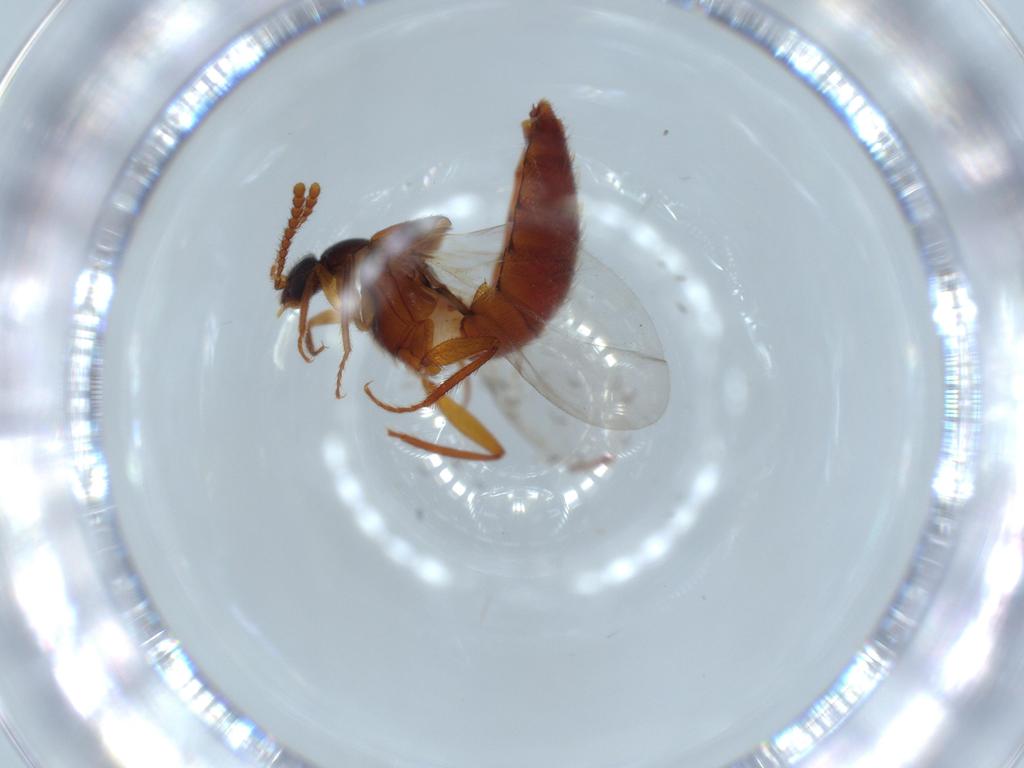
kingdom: Animalia
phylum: Arthropoda
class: Insecta
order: Coleoptera
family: Staphylinidae
